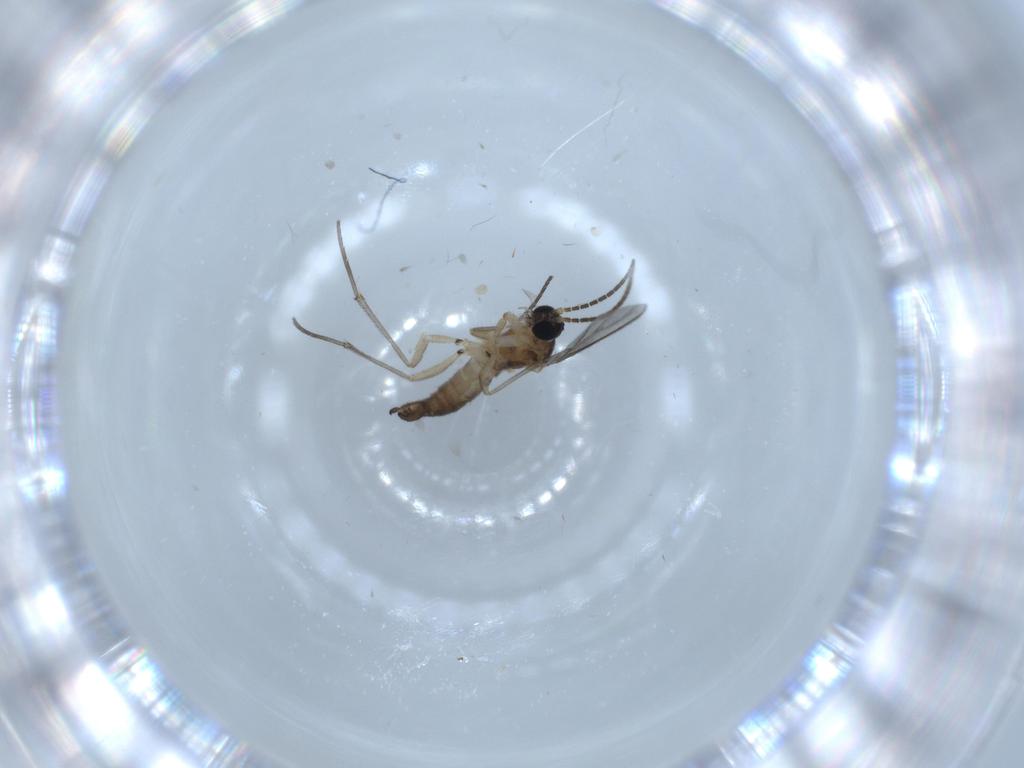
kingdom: Animalia
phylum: Arthropoda
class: Insecta
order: Diptera
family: Sciaridae
